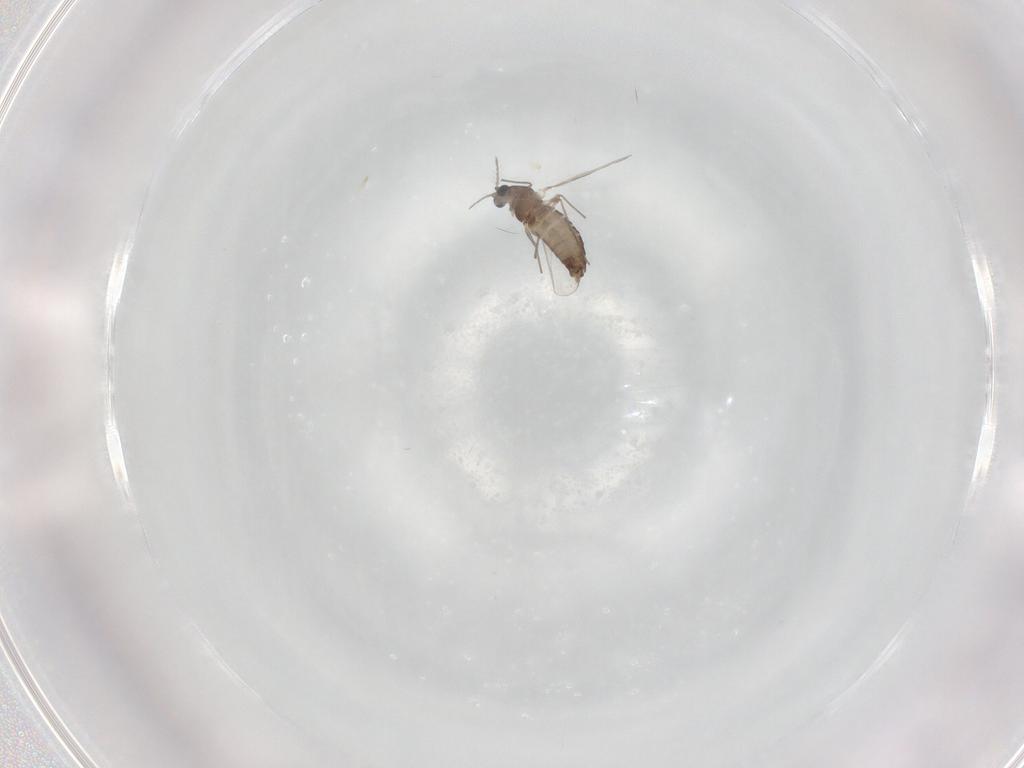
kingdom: Animalia
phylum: Arthropoda
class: Insecta
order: Diptera
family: Chironomidae
